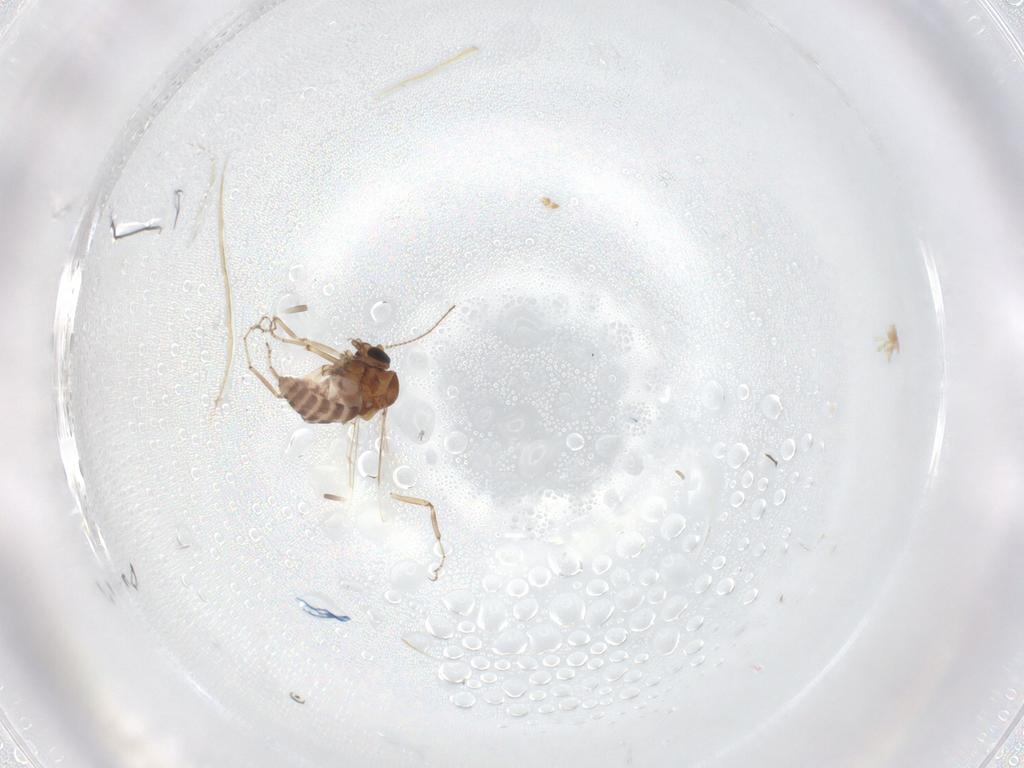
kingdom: Animalia
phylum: Arthropoda
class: Insecta
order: Diptera
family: Ceratopogonidae
